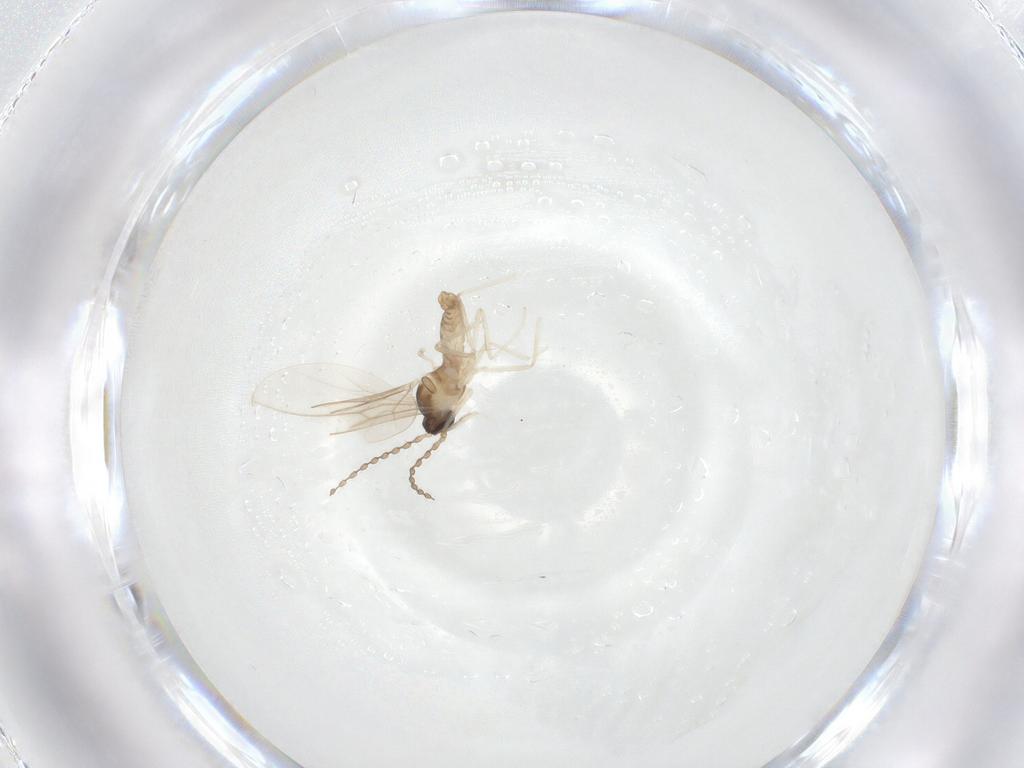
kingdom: Animalia
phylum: Arthropoda
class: Insecta
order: Diptera
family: Cecidomyiidae
